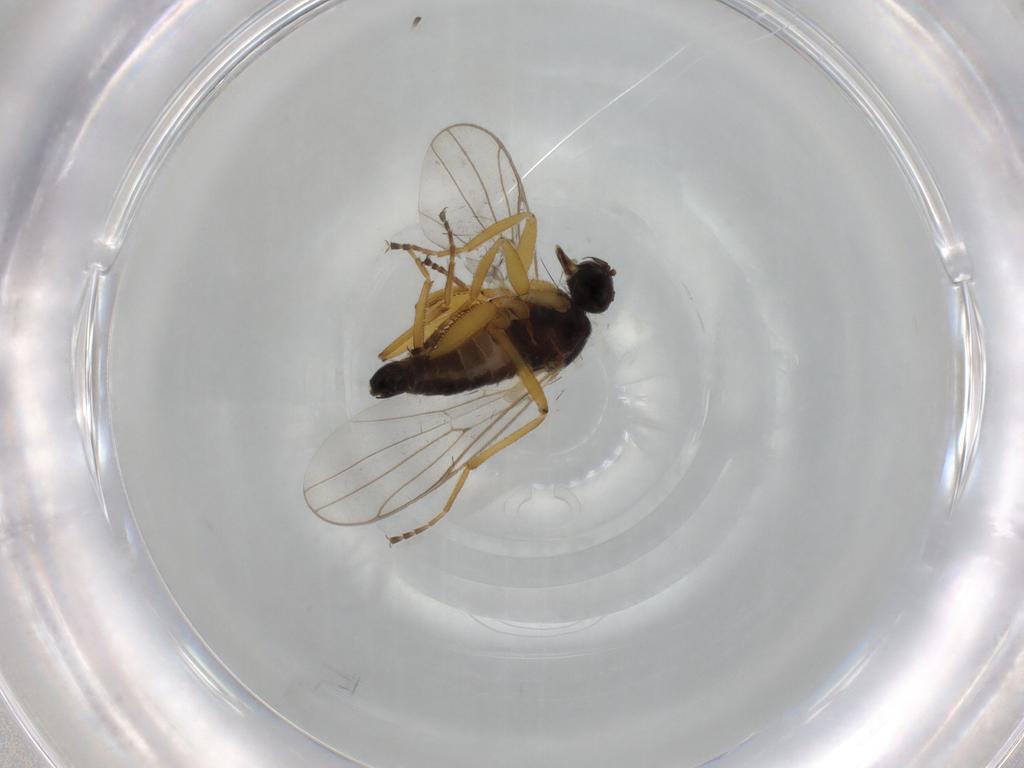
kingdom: Animalia
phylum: Arthropoda
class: Insecta
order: Diptera
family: Hybotidae
